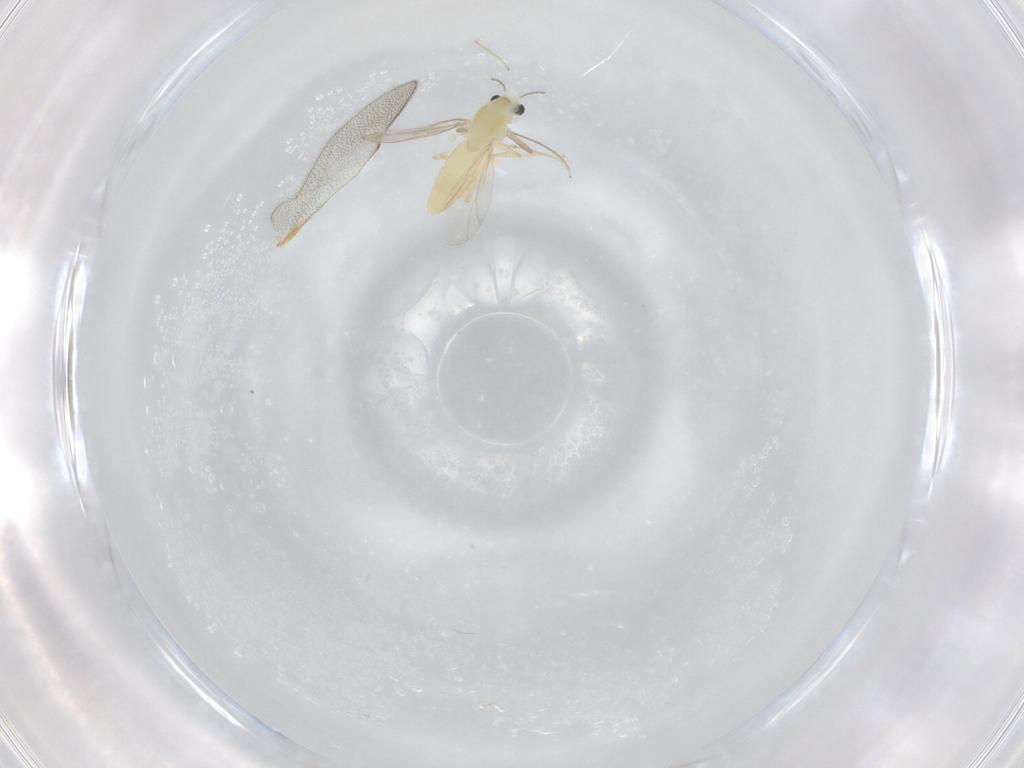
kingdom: Animalia
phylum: Arthropoda
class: Insecta
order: Diptera
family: Chironomidae
